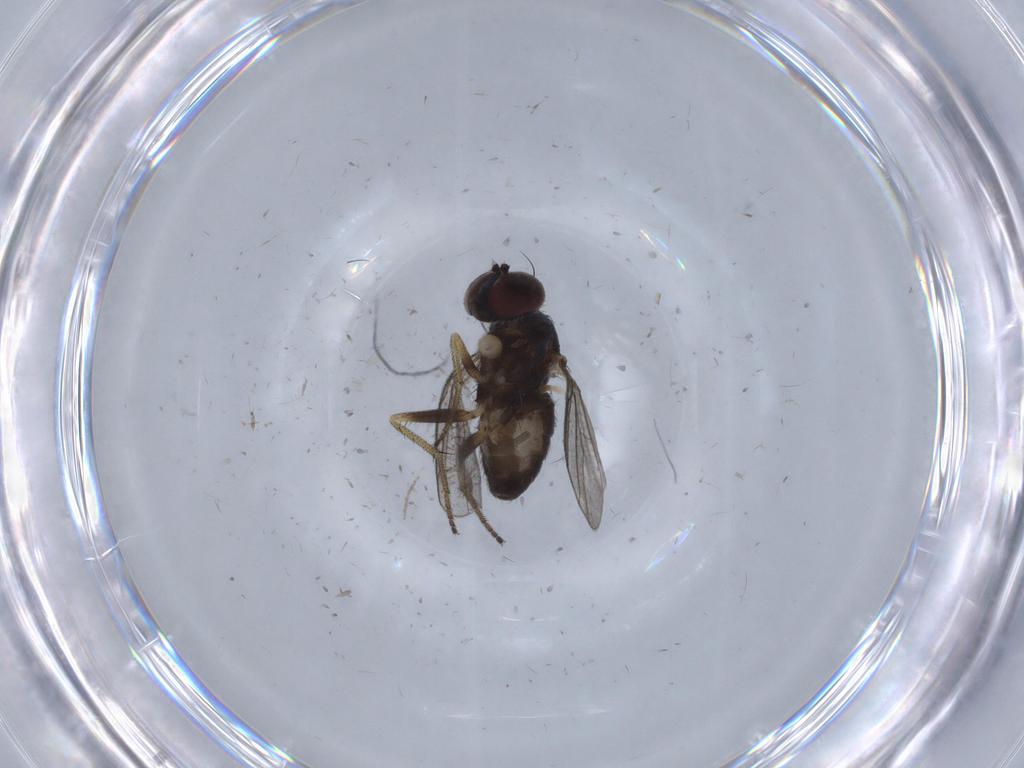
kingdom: Animalia
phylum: Arthropoda
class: Insecta
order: Diptera
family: Dolichopodidae
